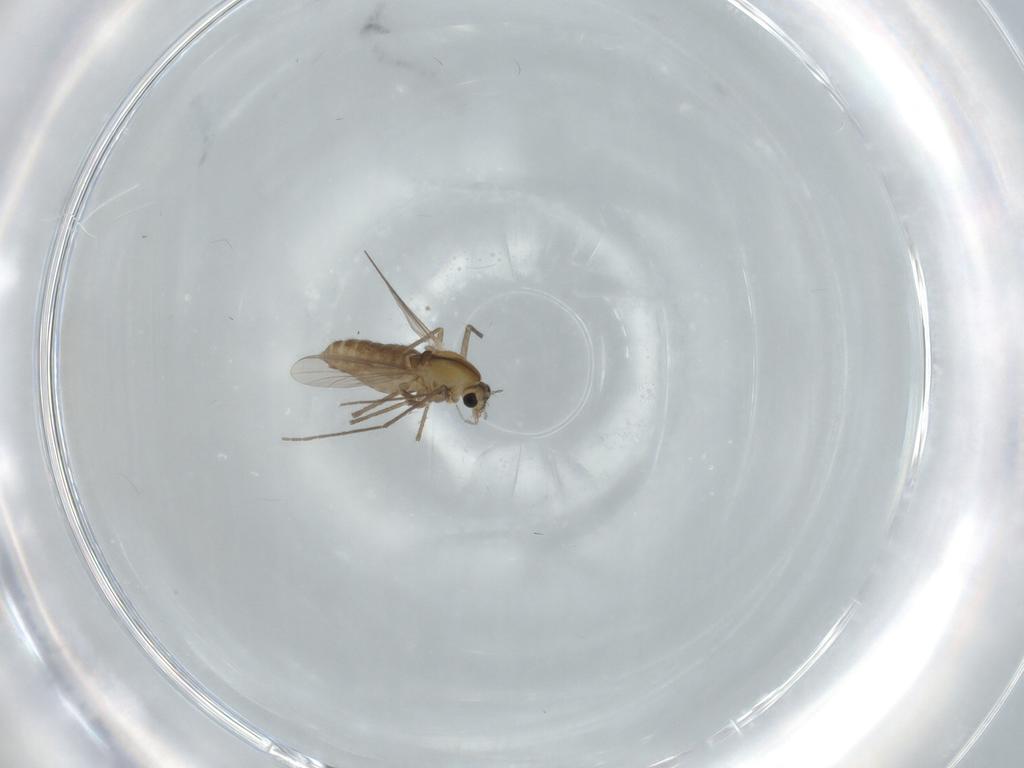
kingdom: Animalia
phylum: Arthropoda
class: Insecta
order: Diptera
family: Chironomidae
